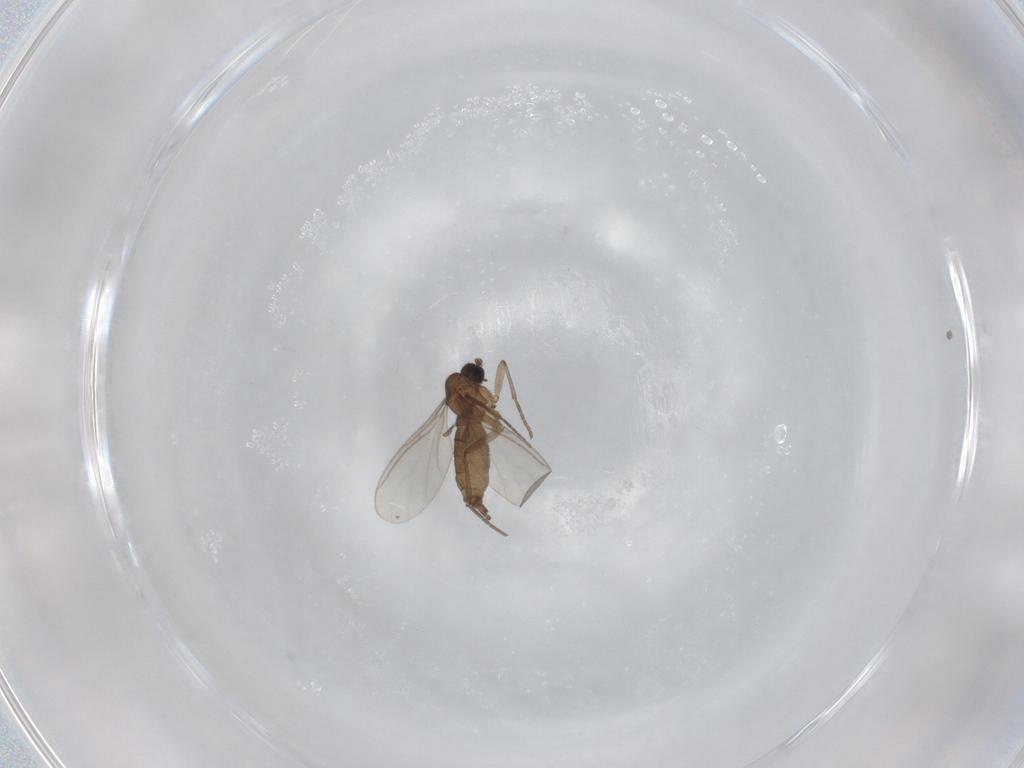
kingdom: Animalia
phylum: Arthropoda
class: Insecta
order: Diptera
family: Sciaridae
